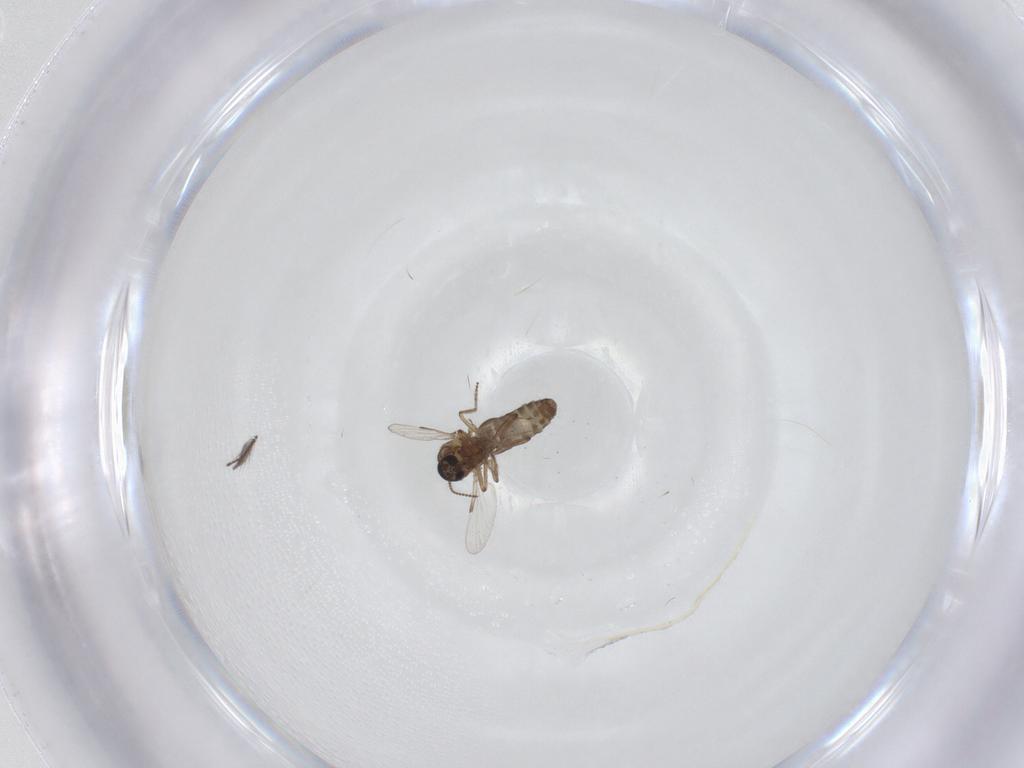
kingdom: Animalia
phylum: Arthropoda
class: Insecta
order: Diptera
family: Ceratopogonidae
